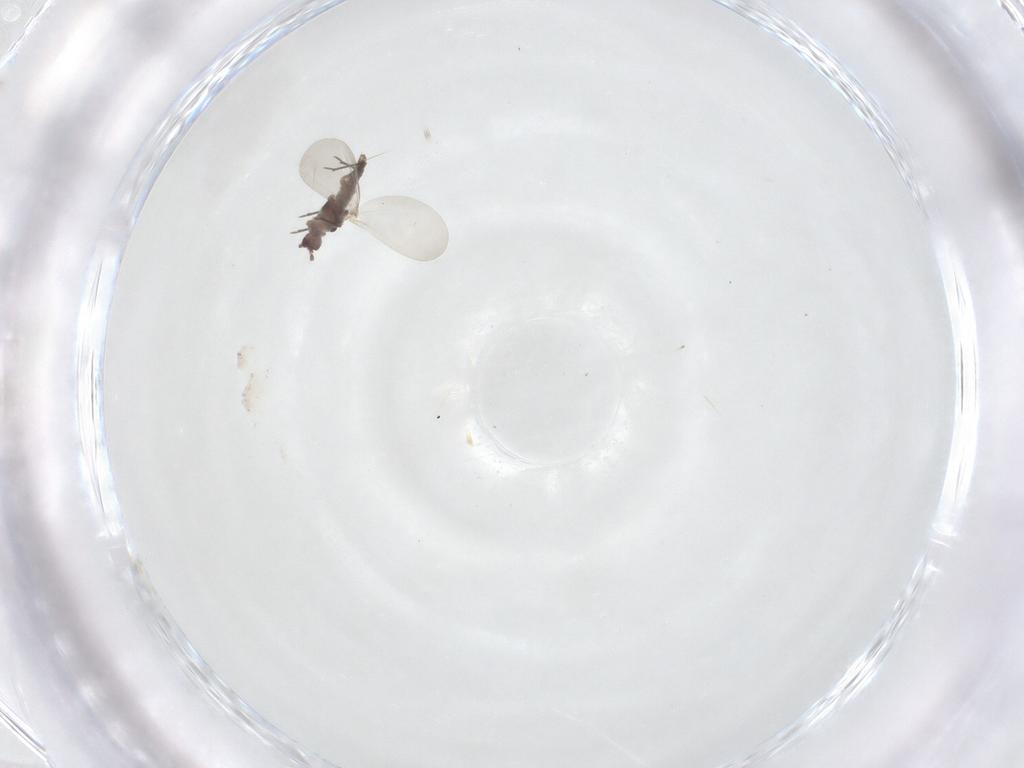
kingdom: Animalia
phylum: Arthropoda
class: Insecta
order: Hemiptera
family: Aleyrodidae
